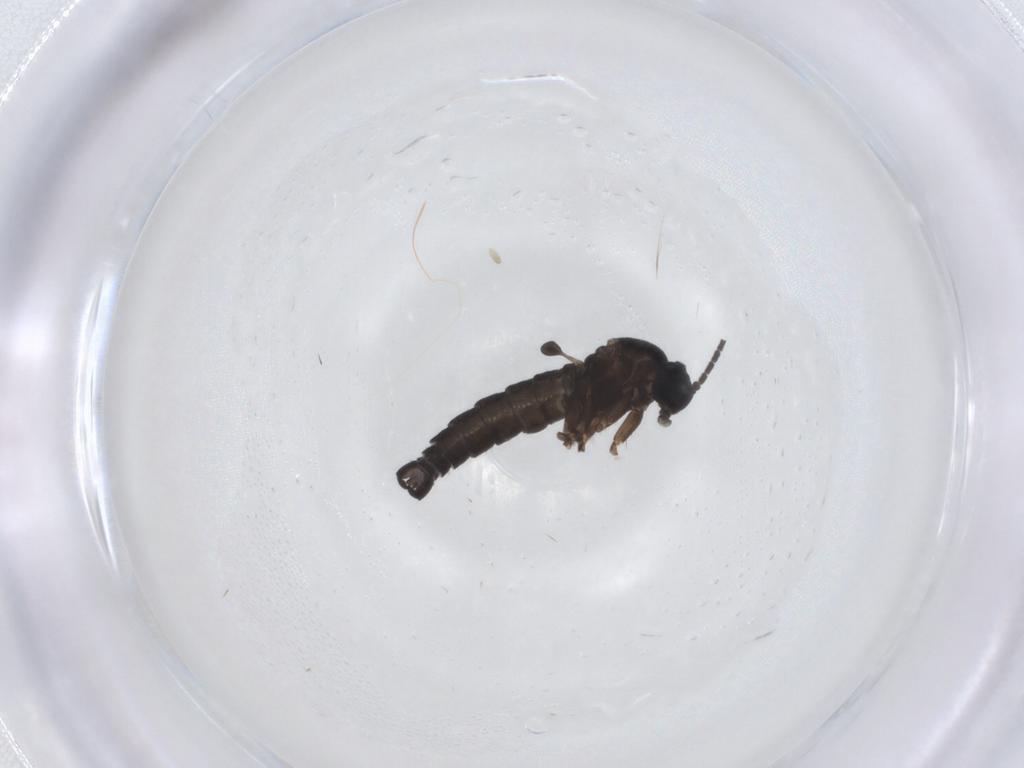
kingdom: Animalia
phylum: Arthropoda
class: Insecta
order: Diptera
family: Sciaridae
